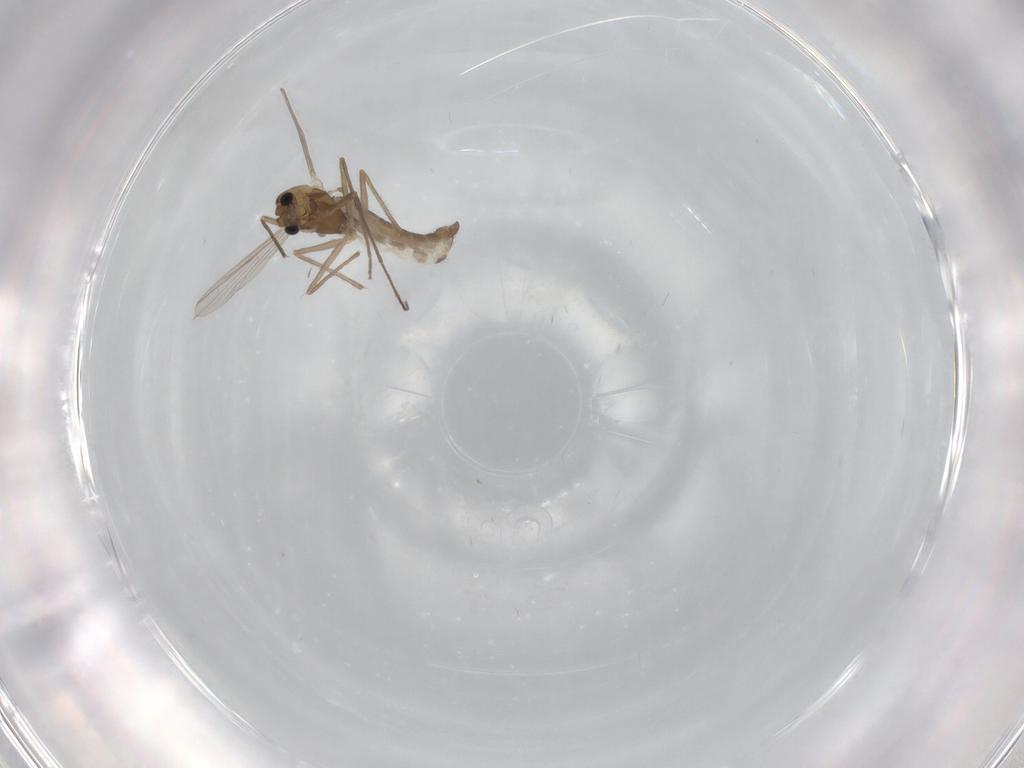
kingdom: Animalia
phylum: Arthropoda
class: Insecta
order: Diptera
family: Chironomidae
